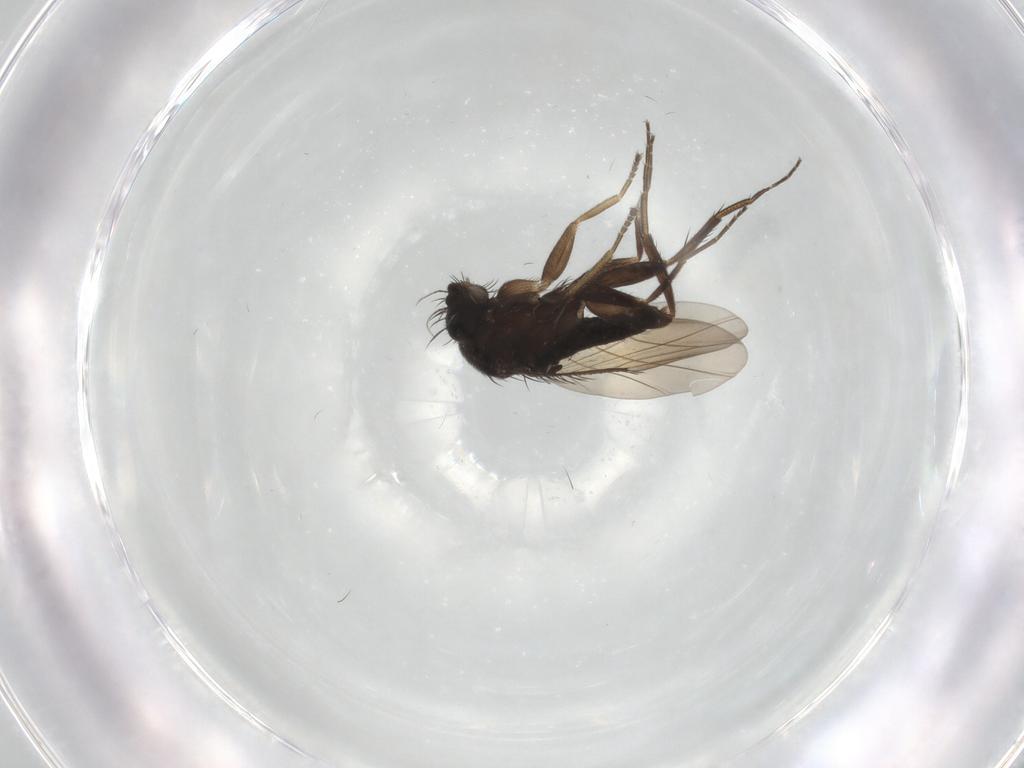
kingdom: Animalia
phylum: Arthropoda
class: Insecta
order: Diptera
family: Phoridae
